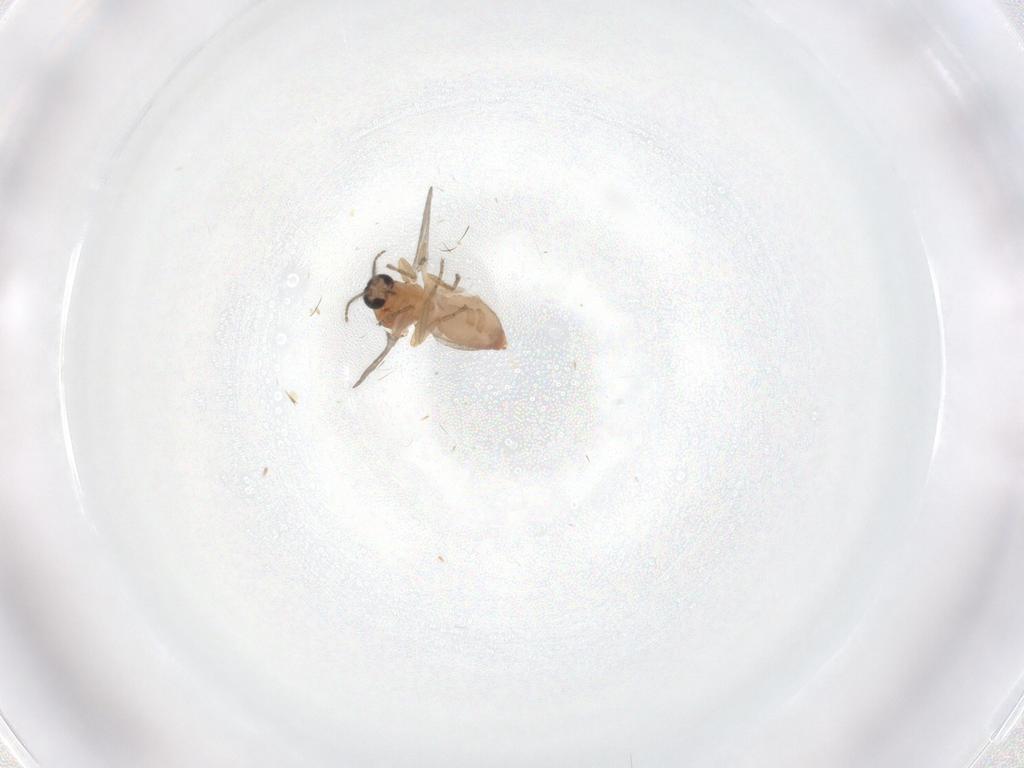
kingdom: Animalia
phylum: Arthropoda
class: Insecta
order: Diptera
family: Ceratopogonidae
